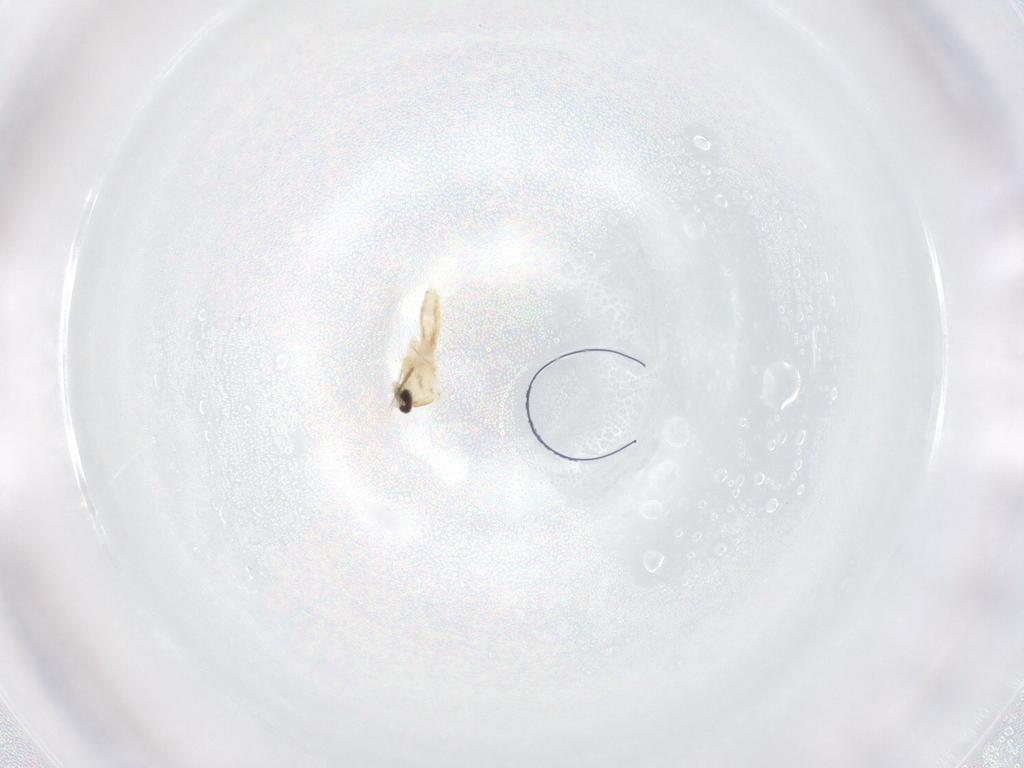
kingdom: Animalia
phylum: Arthropoda
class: Insecta
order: Diptera
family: Cecidomyiidae
